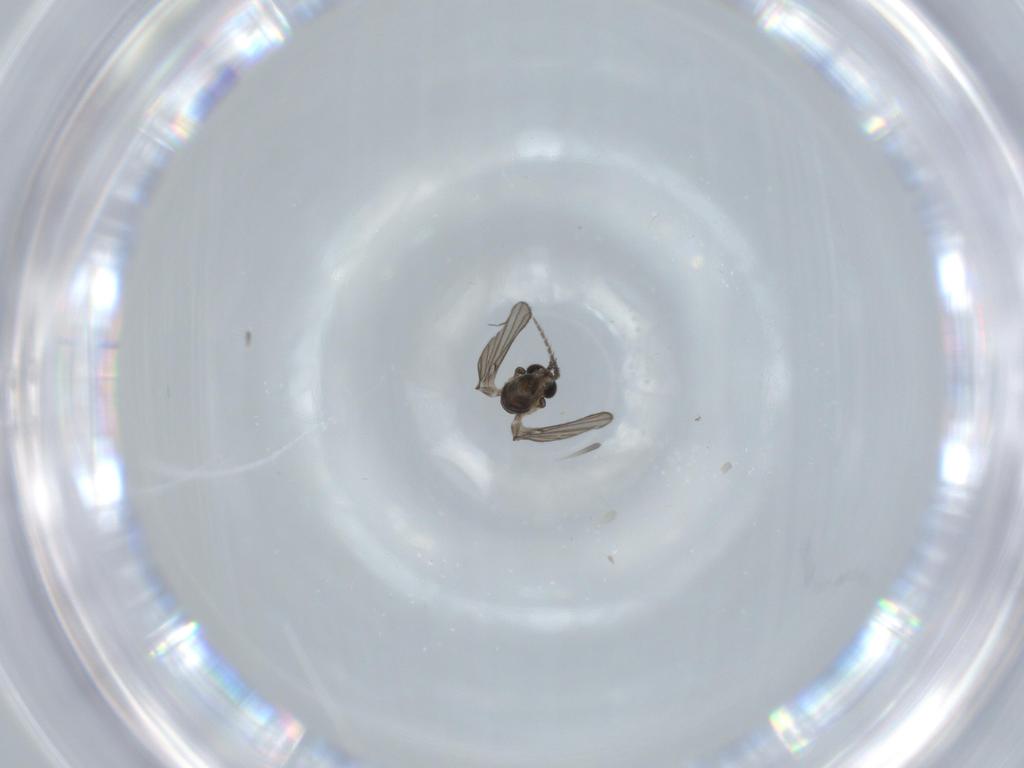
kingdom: Animalia
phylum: Arthropoda
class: Insecta
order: Diptera
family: Psychodidae
